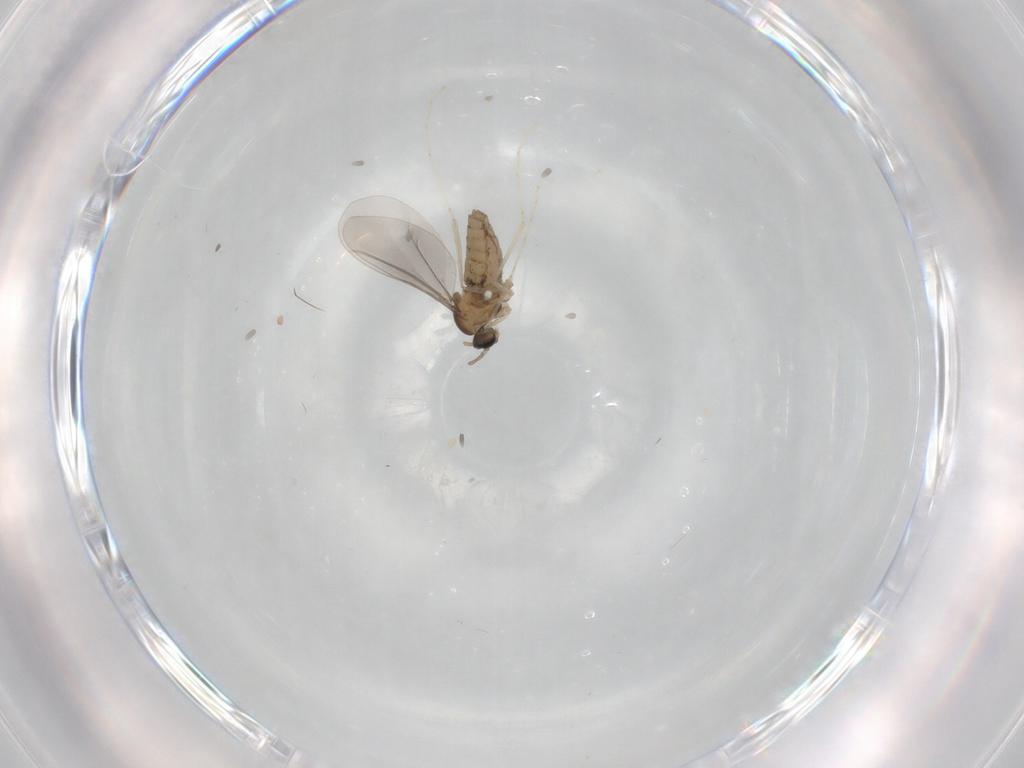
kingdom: Animalia
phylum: Arthropoda
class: Insecta
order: Diptera
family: Cecidomyiidae
